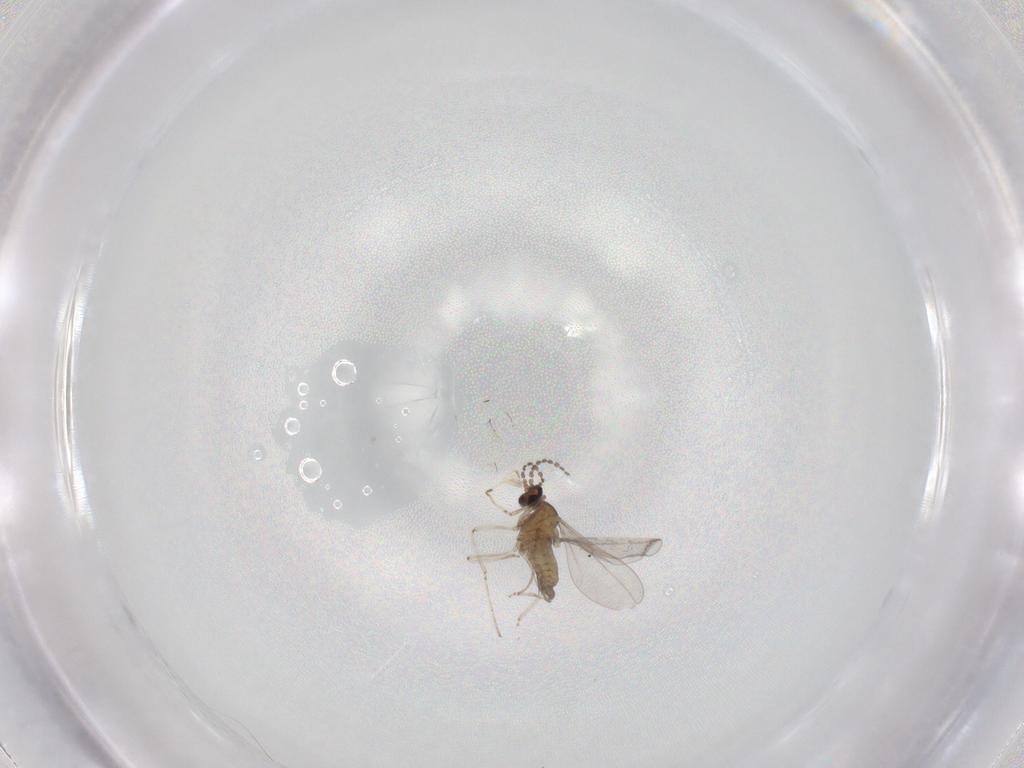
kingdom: Animalia
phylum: Arthropoda
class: Insecta
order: Diptera
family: Cecidomyiidae
